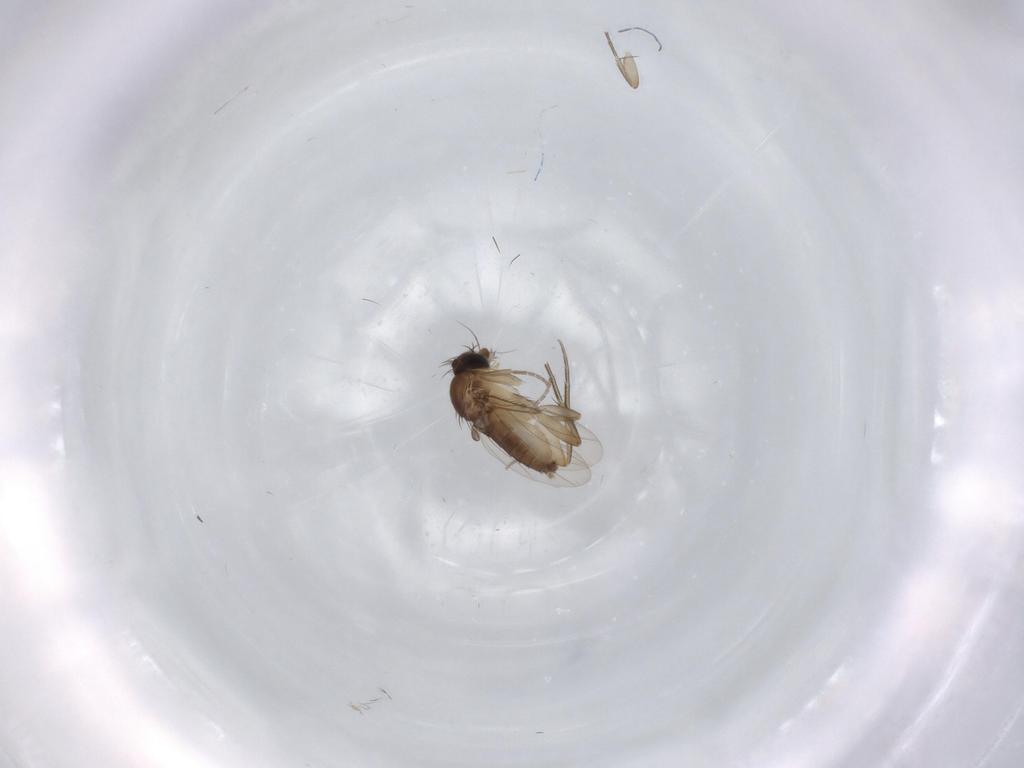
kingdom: Animalia
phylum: Arthropoda
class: Insecta
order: Diptera
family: Phoridae
